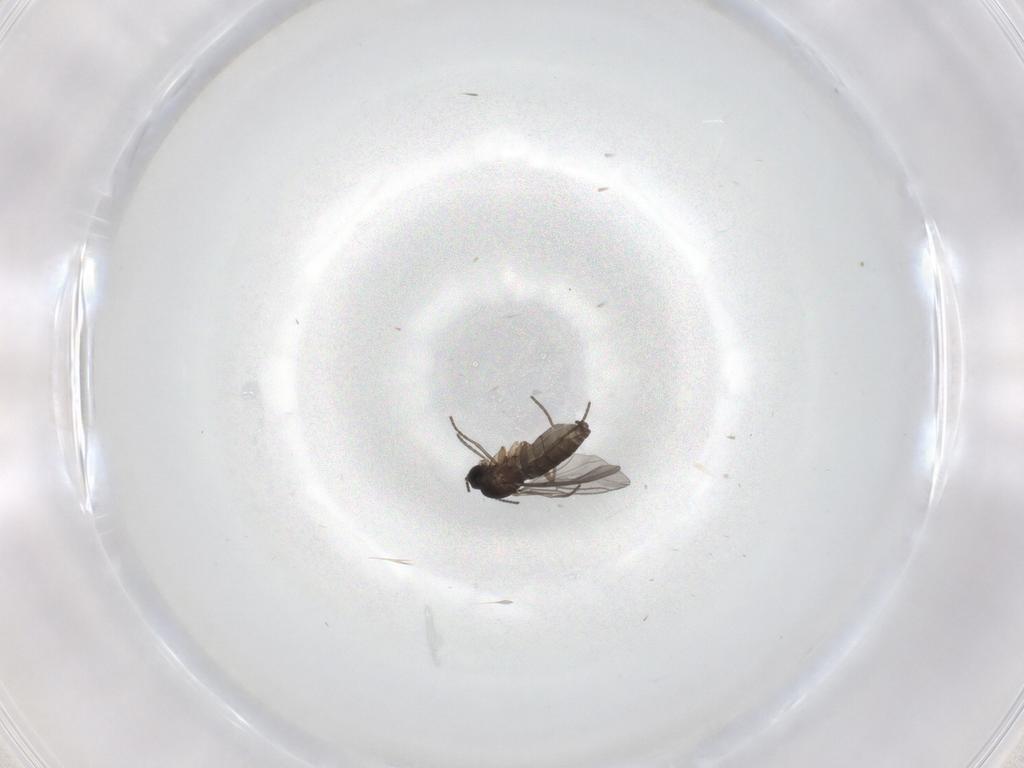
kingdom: Animalia
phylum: Arthropoda
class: Insecta
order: Diptera
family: Sciaridae
